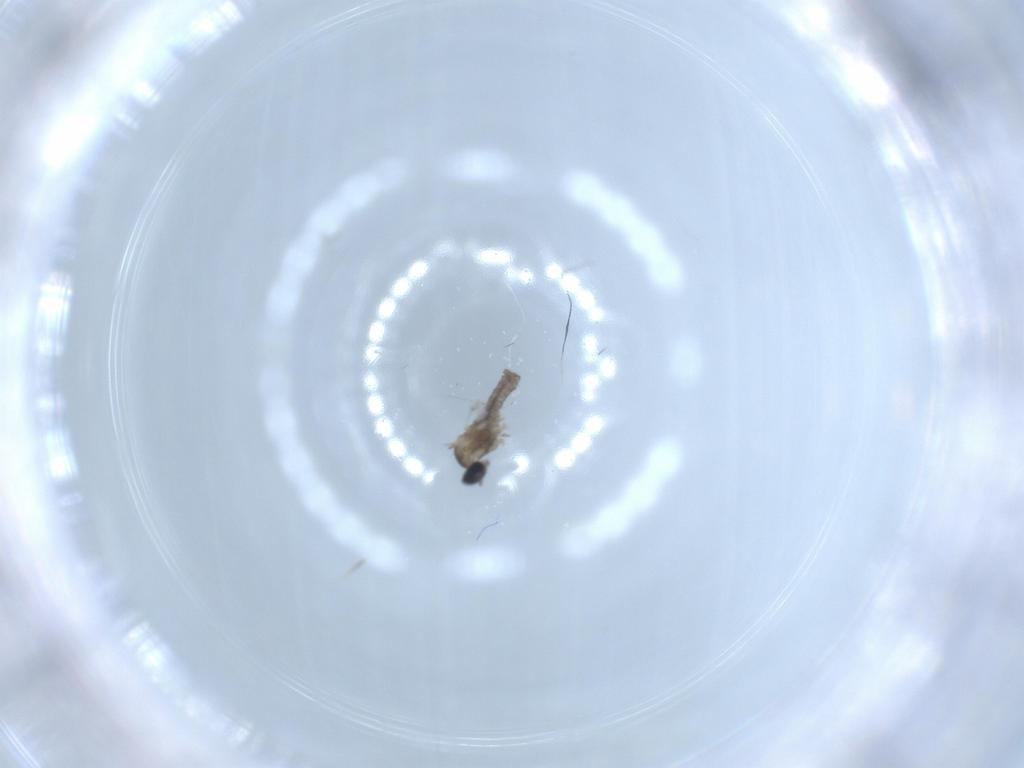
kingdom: Animalia
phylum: Arthropoda
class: Insecta
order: Diptera
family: Cecidomyiidae
